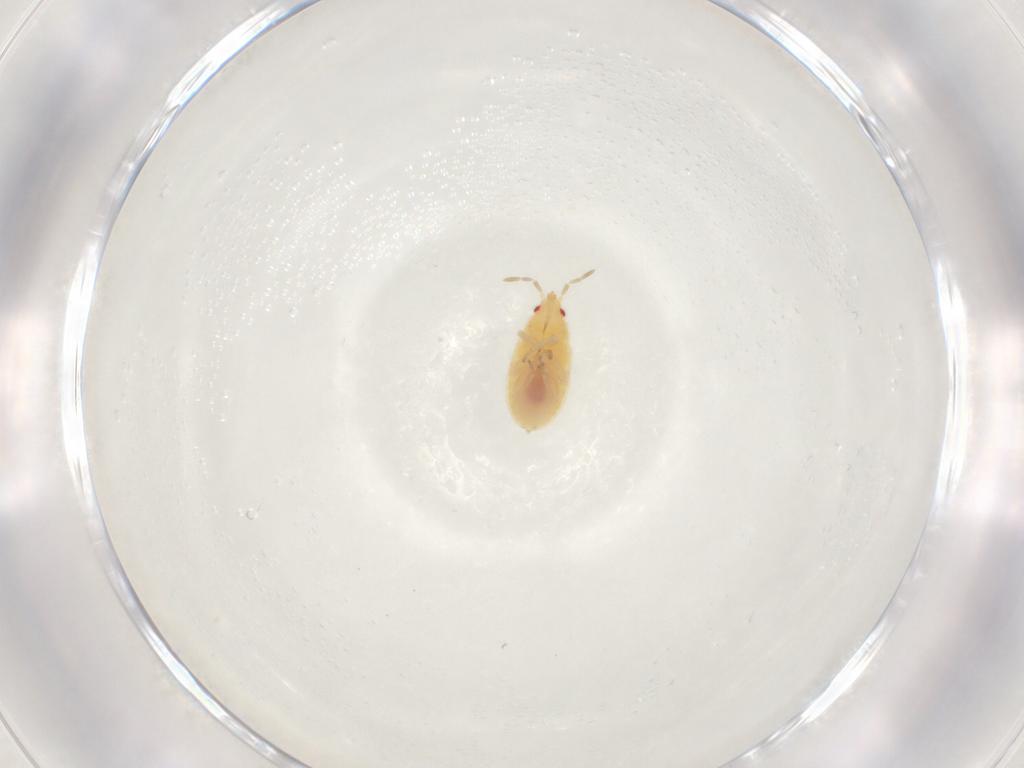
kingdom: Animalia
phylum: Arthropoda
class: Insecta
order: Hemiptera
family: Anthocoridae
